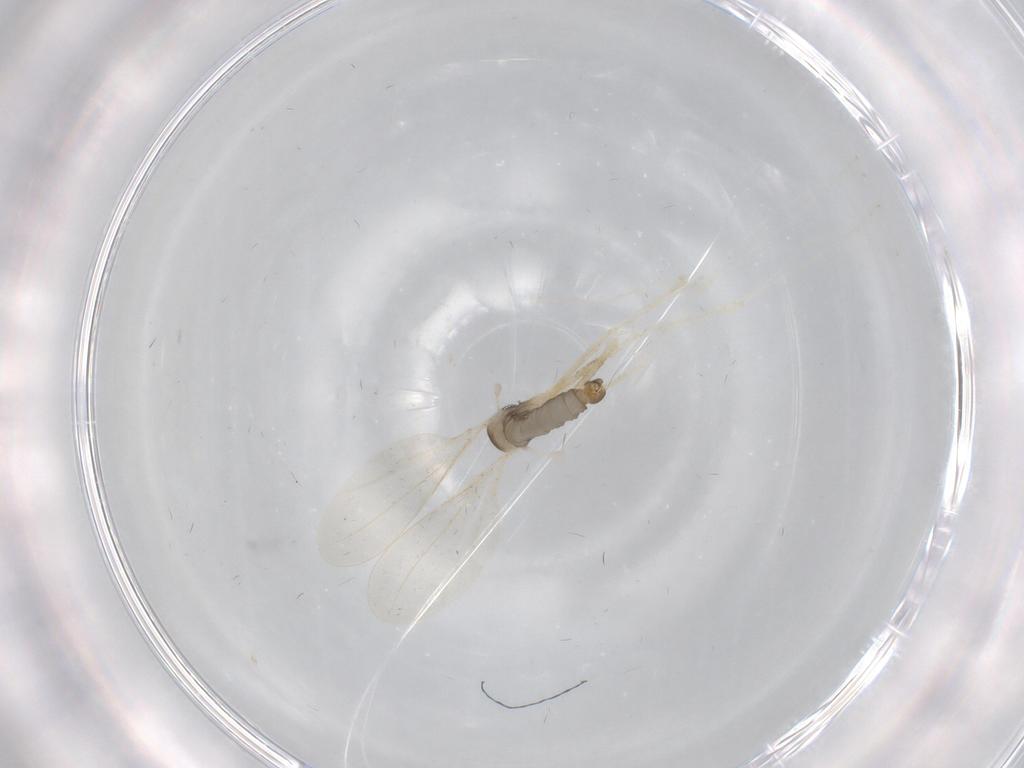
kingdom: Animalia
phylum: Arthropoda
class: Insecta
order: Diptera
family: Cecidomyiidae
